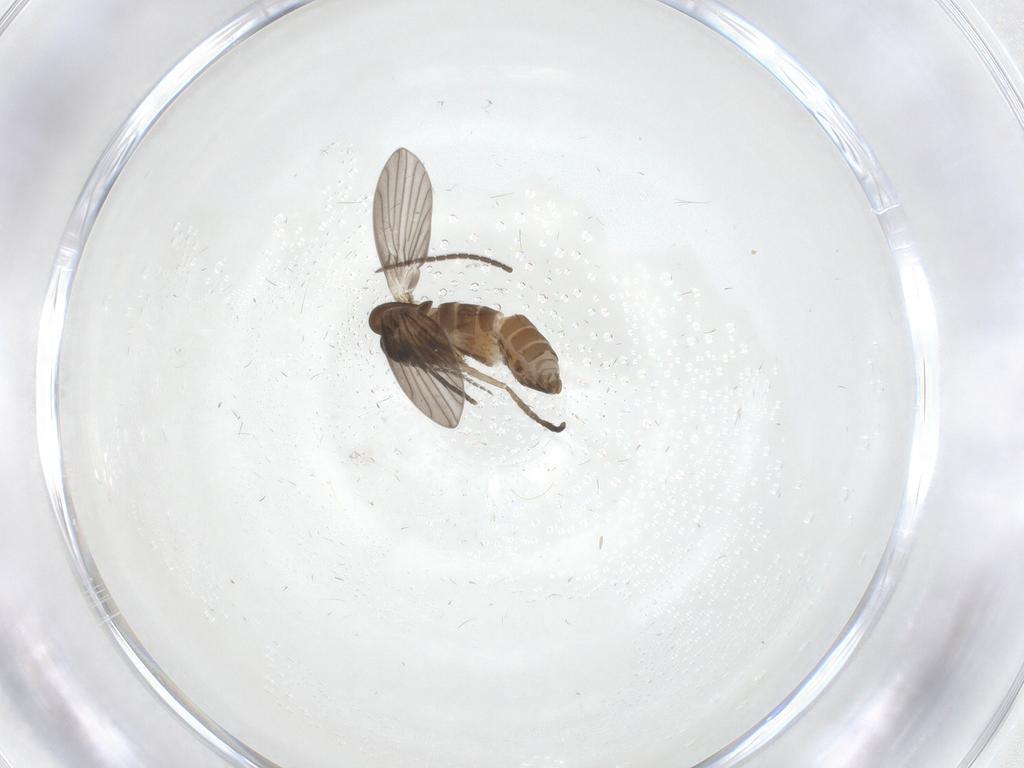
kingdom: Animalia
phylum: Arthropoda
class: Insecta
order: Diptera
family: Psychodidae
